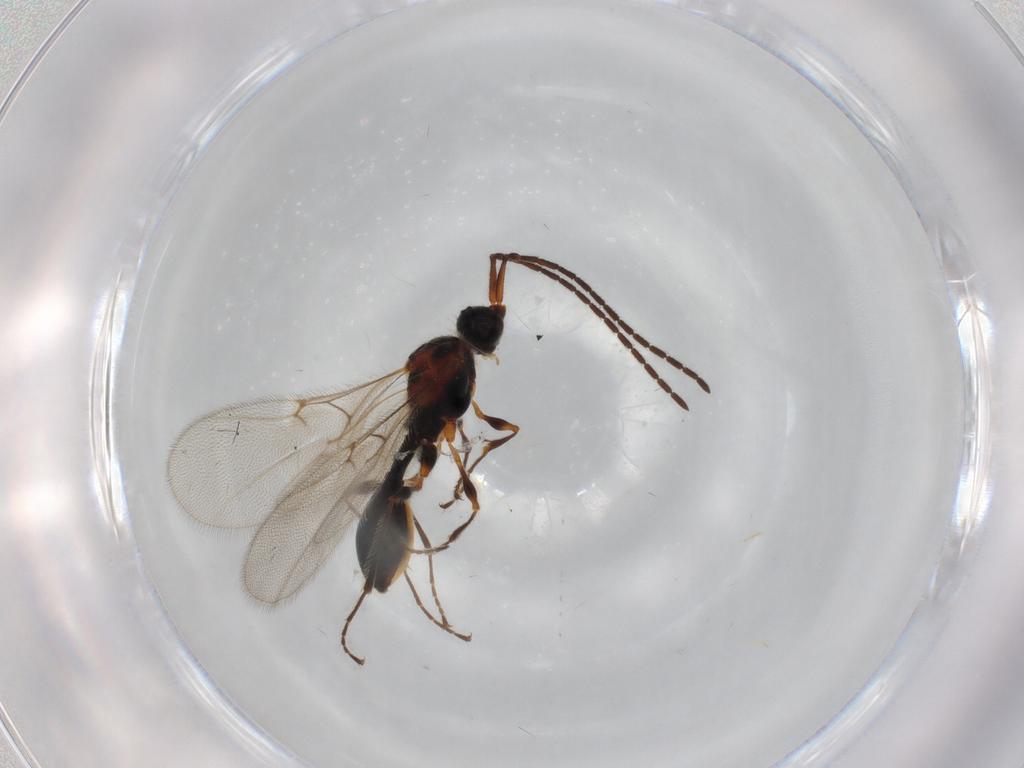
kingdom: Animalia
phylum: Arthropoda
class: Insecta
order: Hymenoptera
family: Diapriidae
